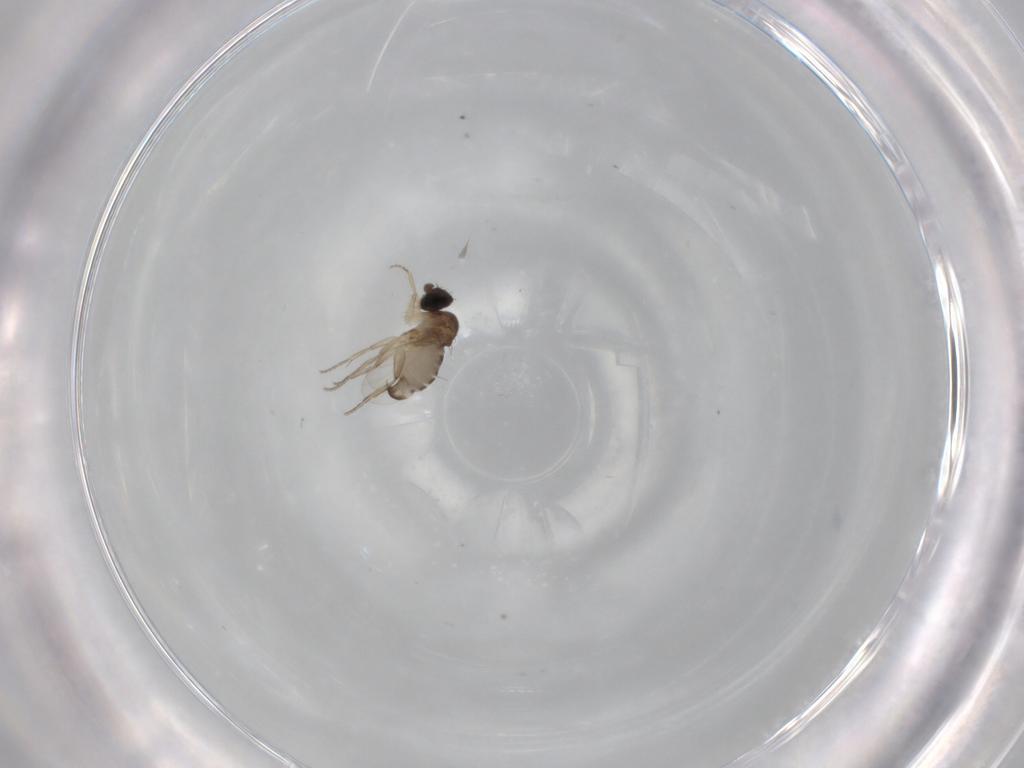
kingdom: Animalia
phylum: Arthropoda
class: Insecta
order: Diptera
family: Phoridae
